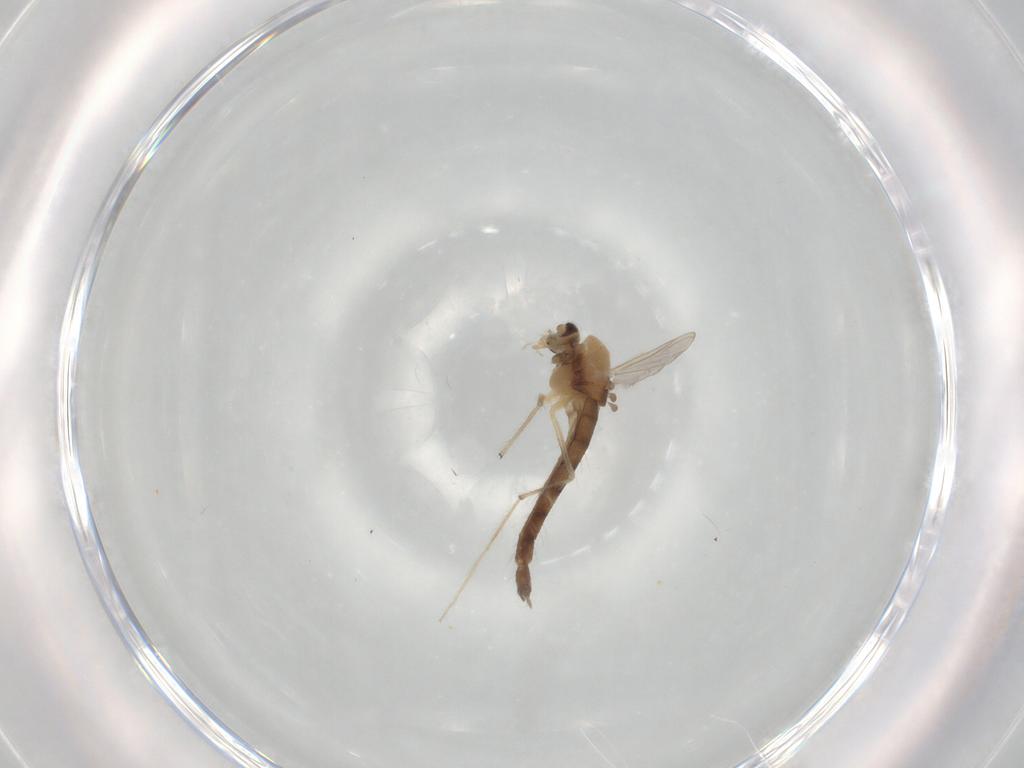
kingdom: Animalia
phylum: Arthropoda
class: Insecta
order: Diptera
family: Chironomidae
